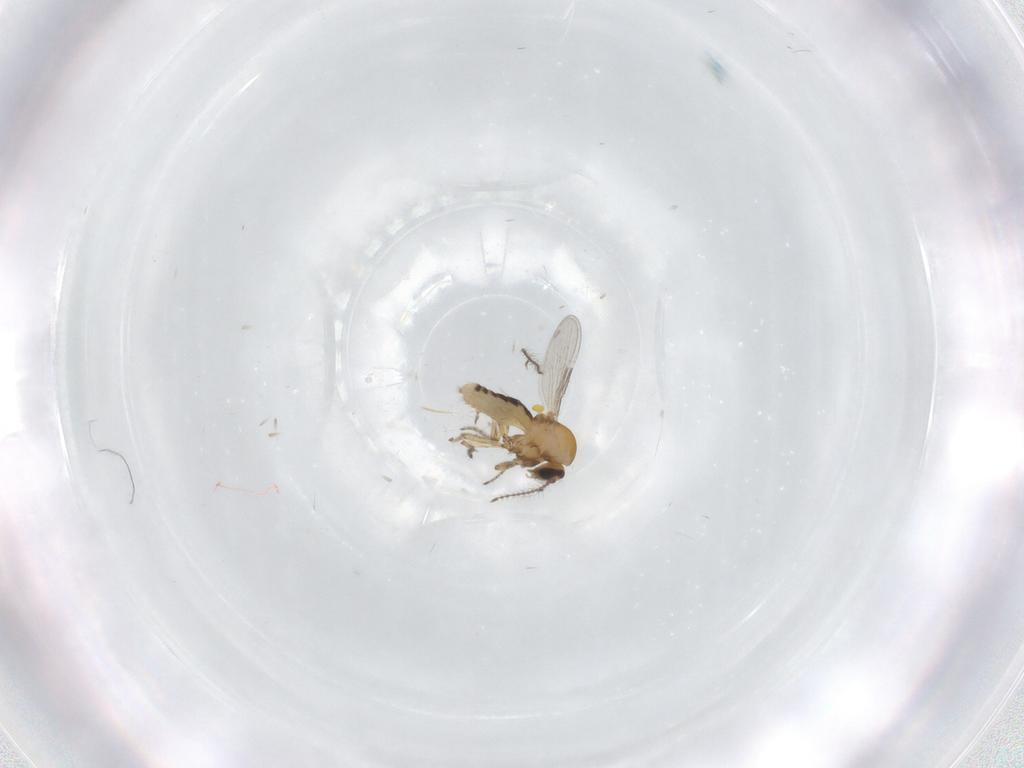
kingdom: Animalia
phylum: Arthropoda
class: Insecta
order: Diptera
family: Ceratopogonidae
